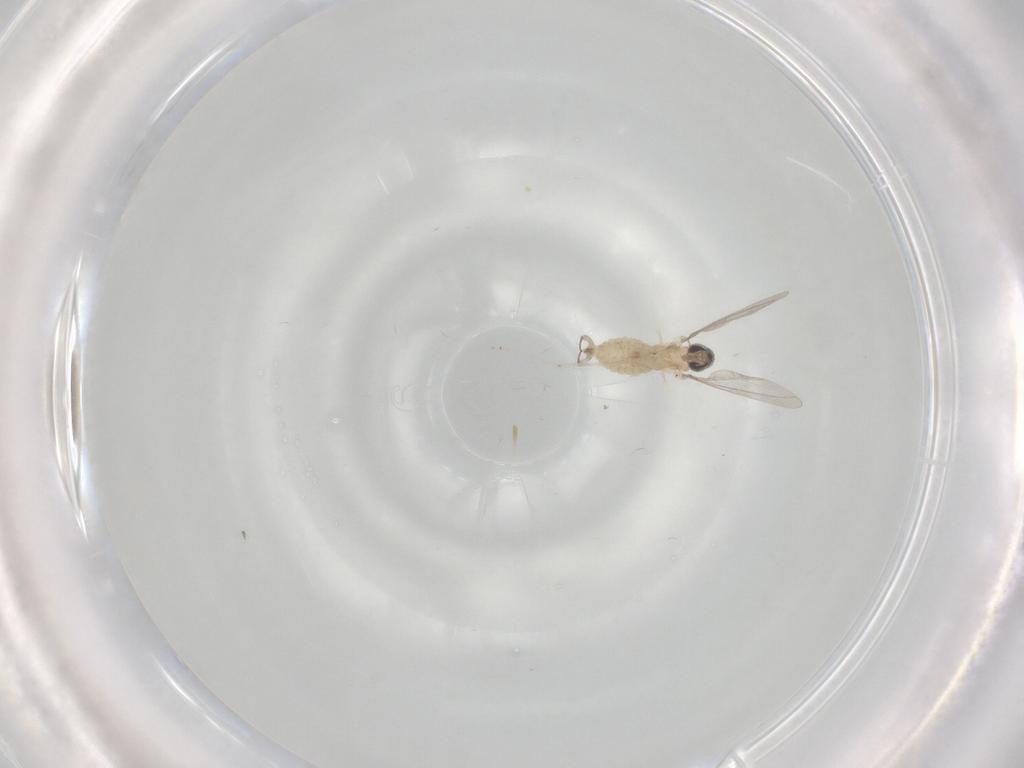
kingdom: Animalia
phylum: Arthropoda
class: Insecta
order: Diptera
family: Cecidomyiidae
